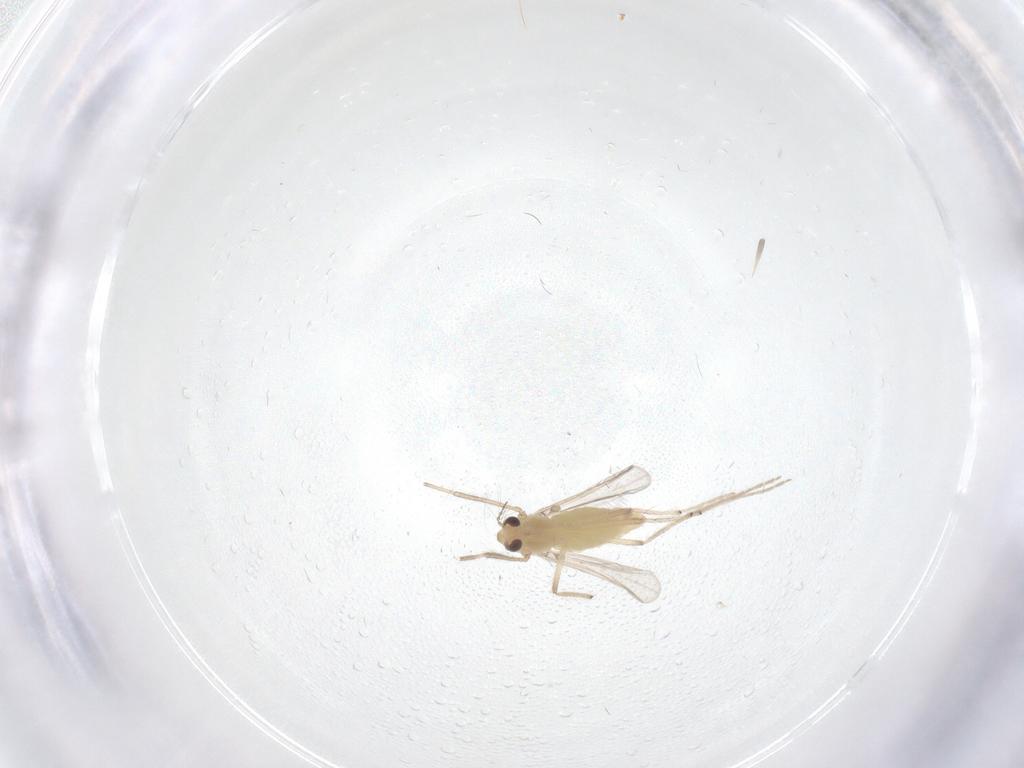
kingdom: Animalia
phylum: Arthropoda
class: Insecta
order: Diptera
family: Chironomidae
